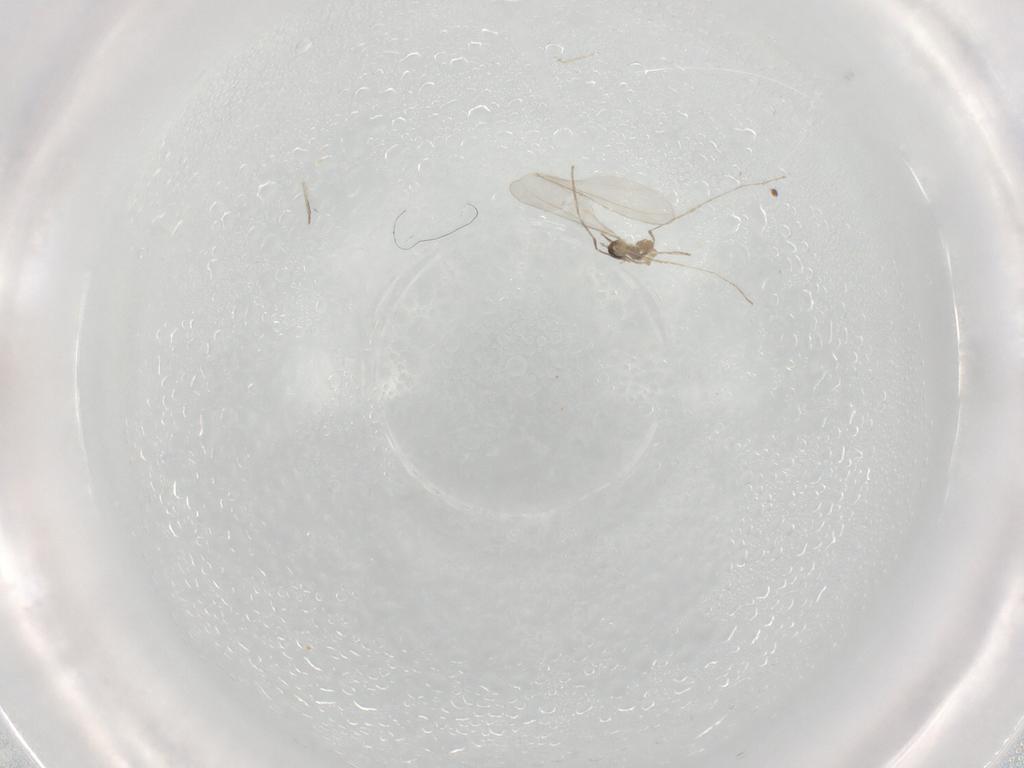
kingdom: Animalia
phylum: Arthropoda
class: Insecta
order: Diptera
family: Cecidomyiidae
